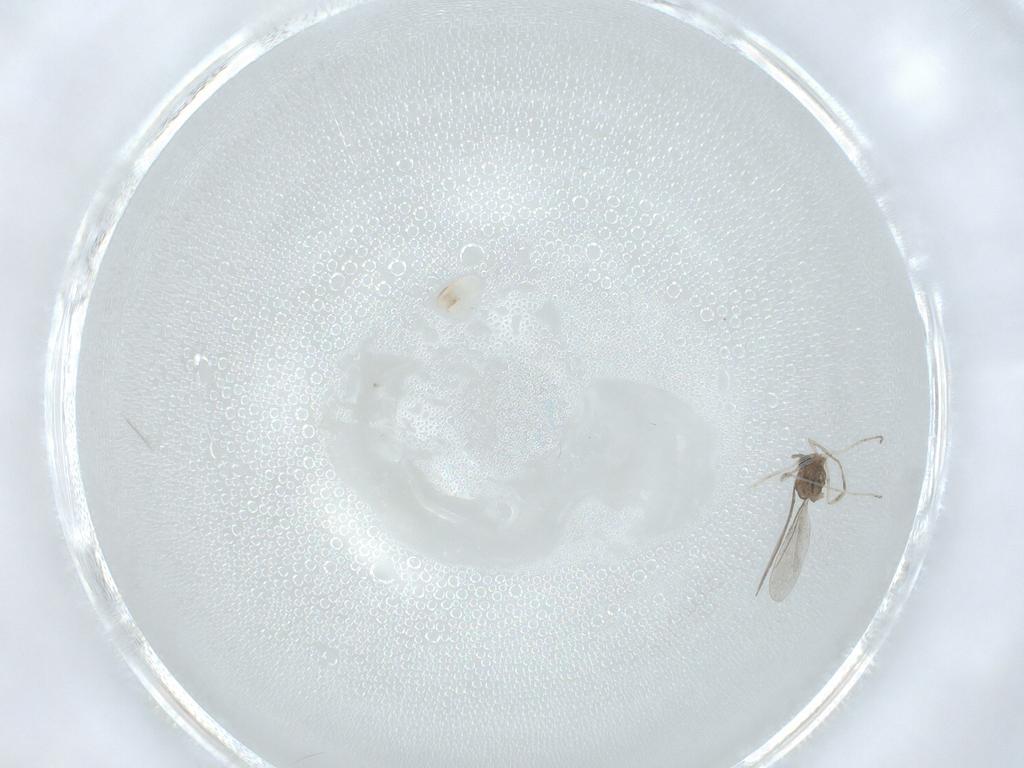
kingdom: Animalia
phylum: Arthropoda
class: Insecta
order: Diptera
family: Cecidomyiidae
